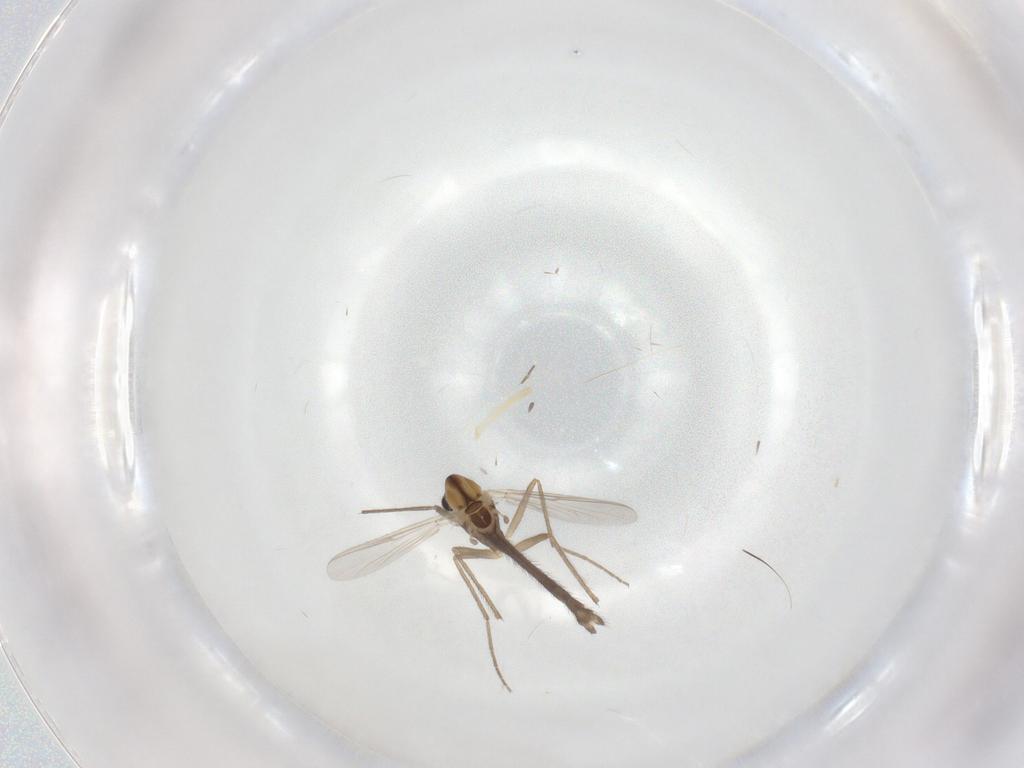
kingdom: Animalia
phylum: Arthropoda
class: Insecta
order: Diptera
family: Chironomidae
